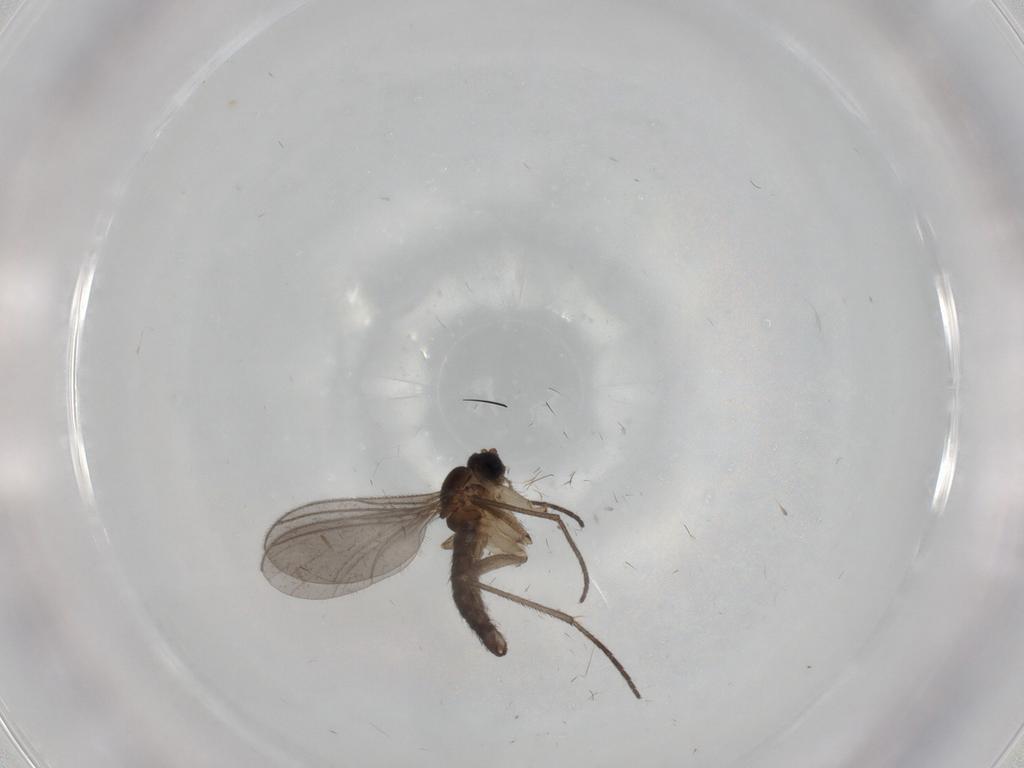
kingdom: Animalia
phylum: Arthropoda
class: Insecta
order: Diptera
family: Sciaridae
